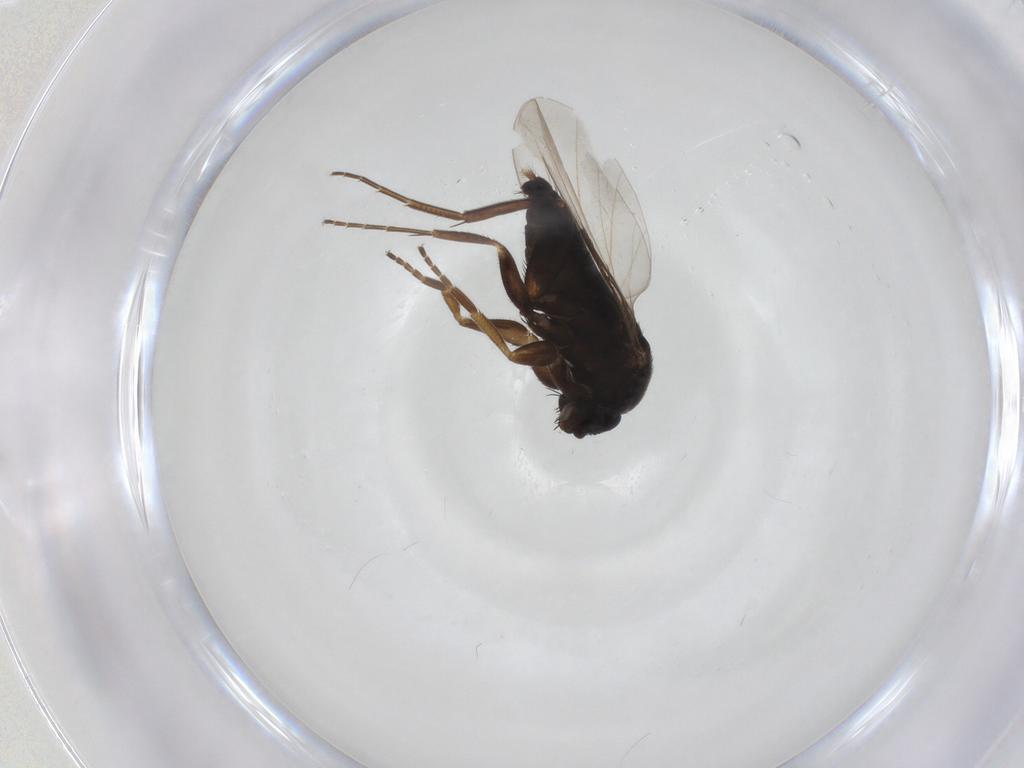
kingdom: Animalia
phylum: Arthropoda
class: Insecta
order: Diptera
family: Phoridae
